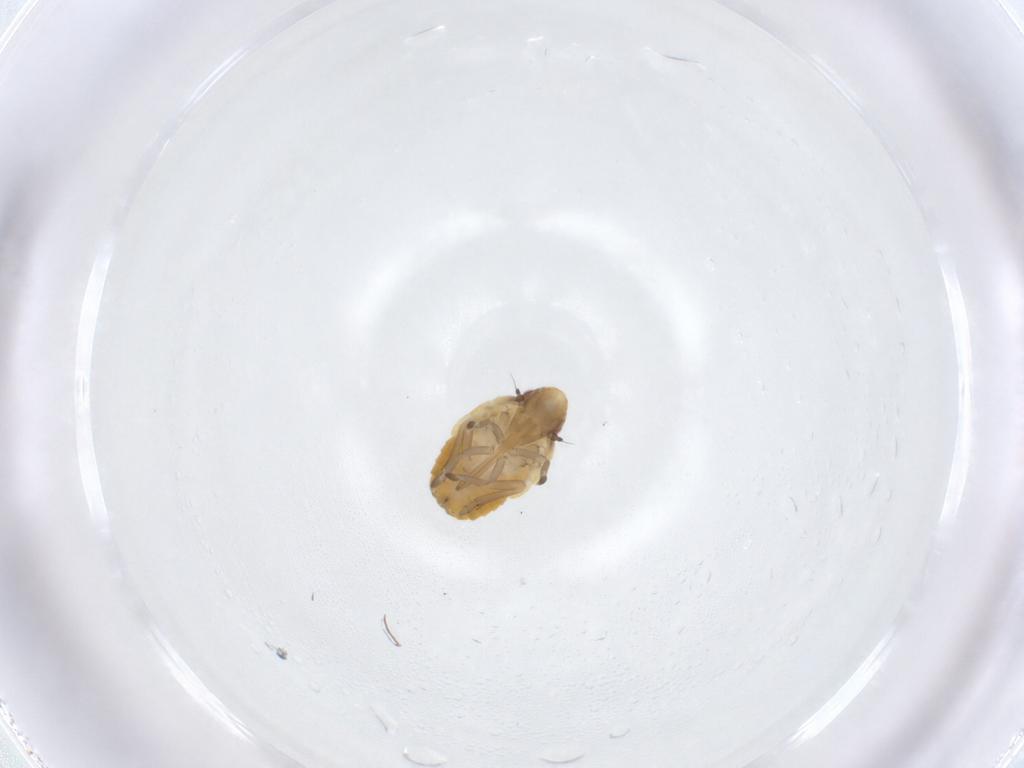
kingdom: Animalia
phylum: Arthropoda
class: Insecta
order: Hemiptera
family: Flatidae
